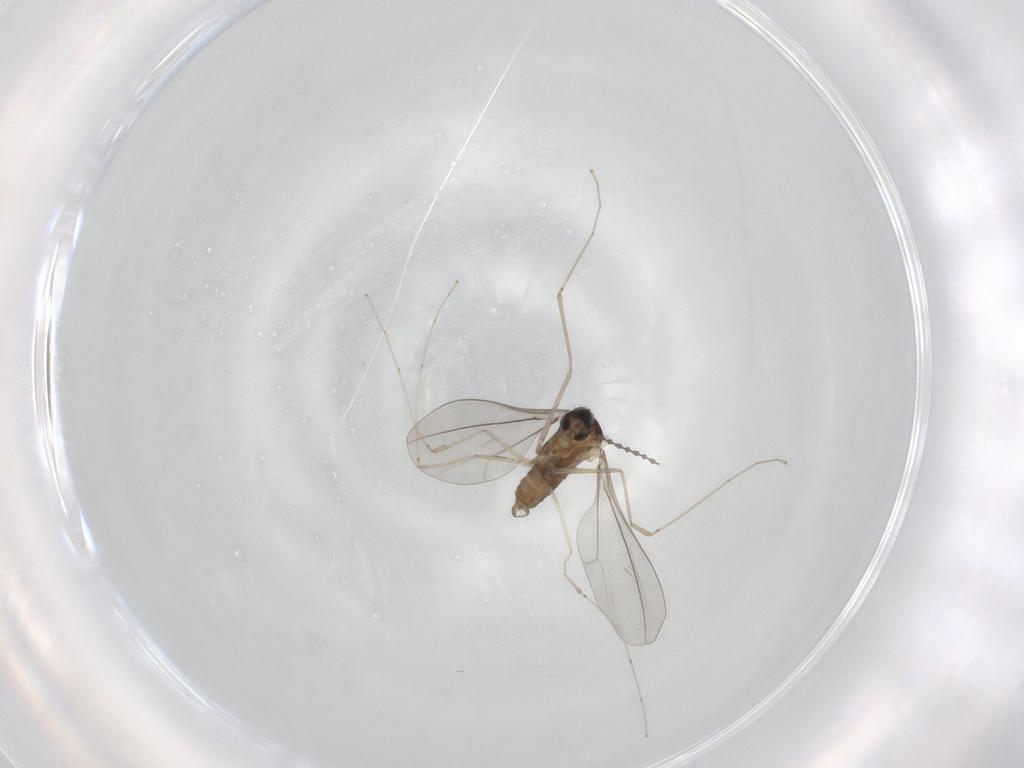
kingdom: Animalia
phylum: Arthropoda
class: Insecta
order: Diptera
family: Cecidomyiidae
